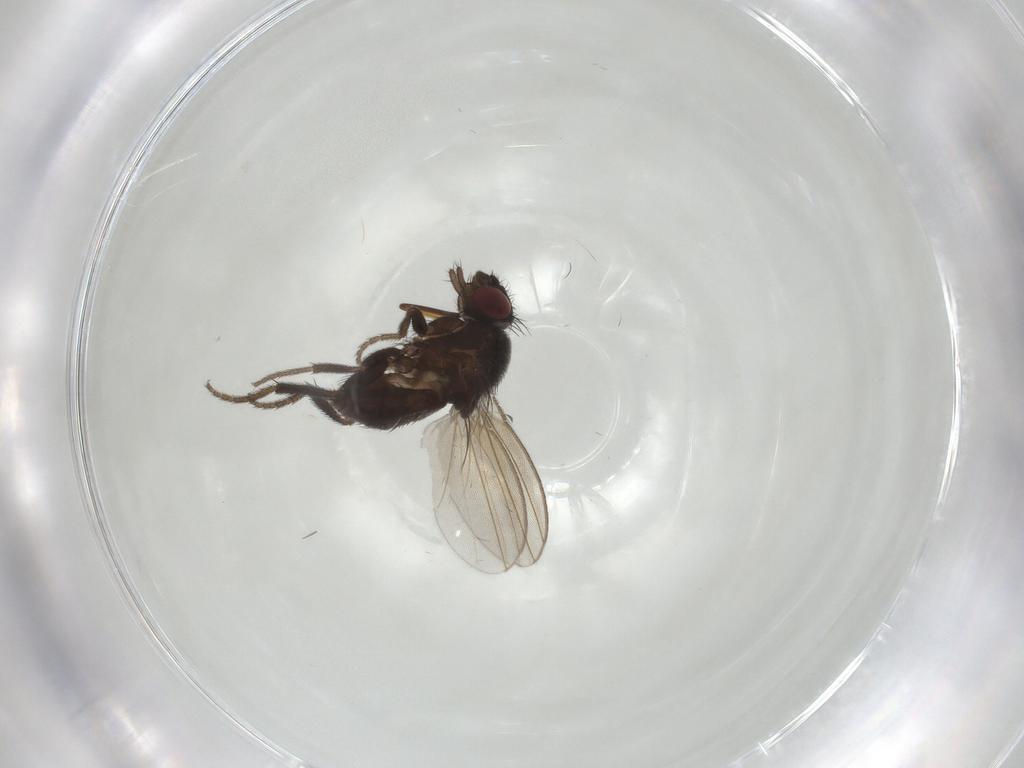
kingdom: Animalia
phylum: Arthropoda
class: Insecta
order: Diptera
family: Milichiidae
